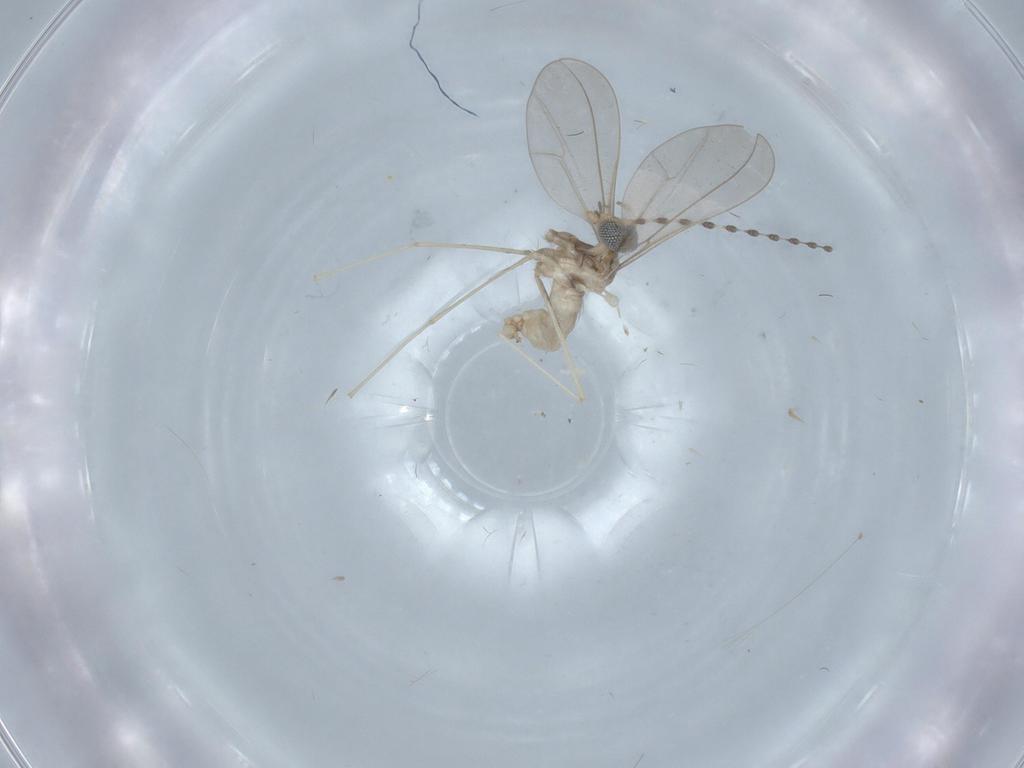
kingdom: Animalia
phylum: Arthropoda
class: Insecta
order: Diptera
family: Cecidomyiidae
